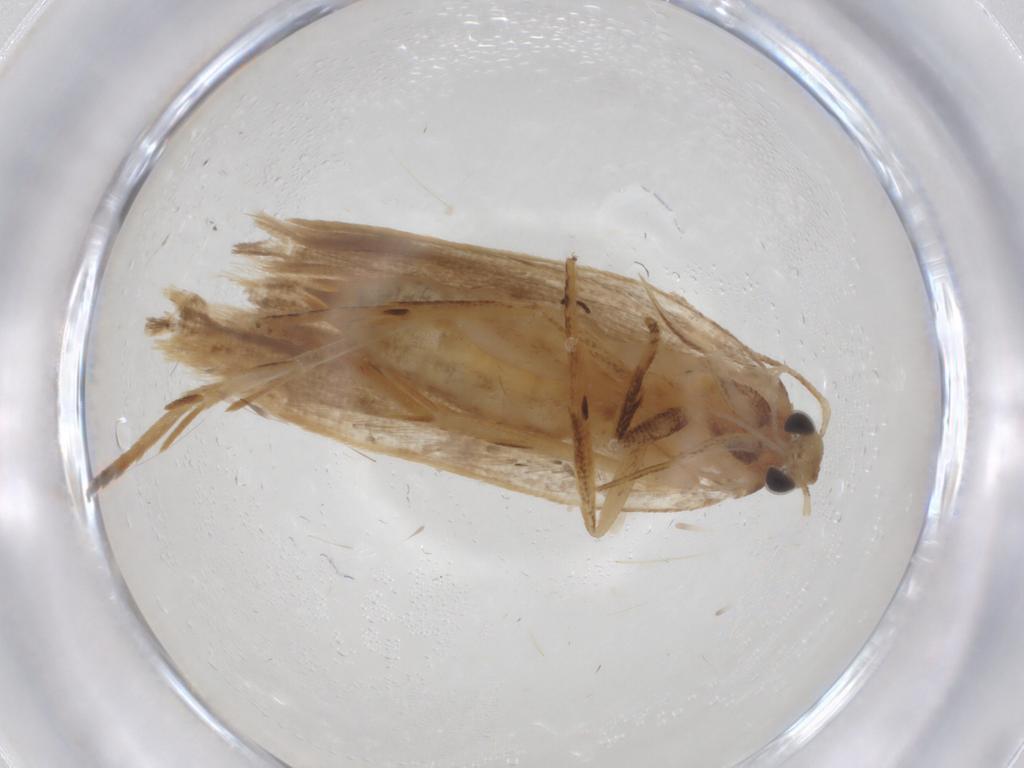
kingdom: Animalia
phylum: Arthropoda
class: Insecta
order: Lepidoptera
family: Gelechiidae
